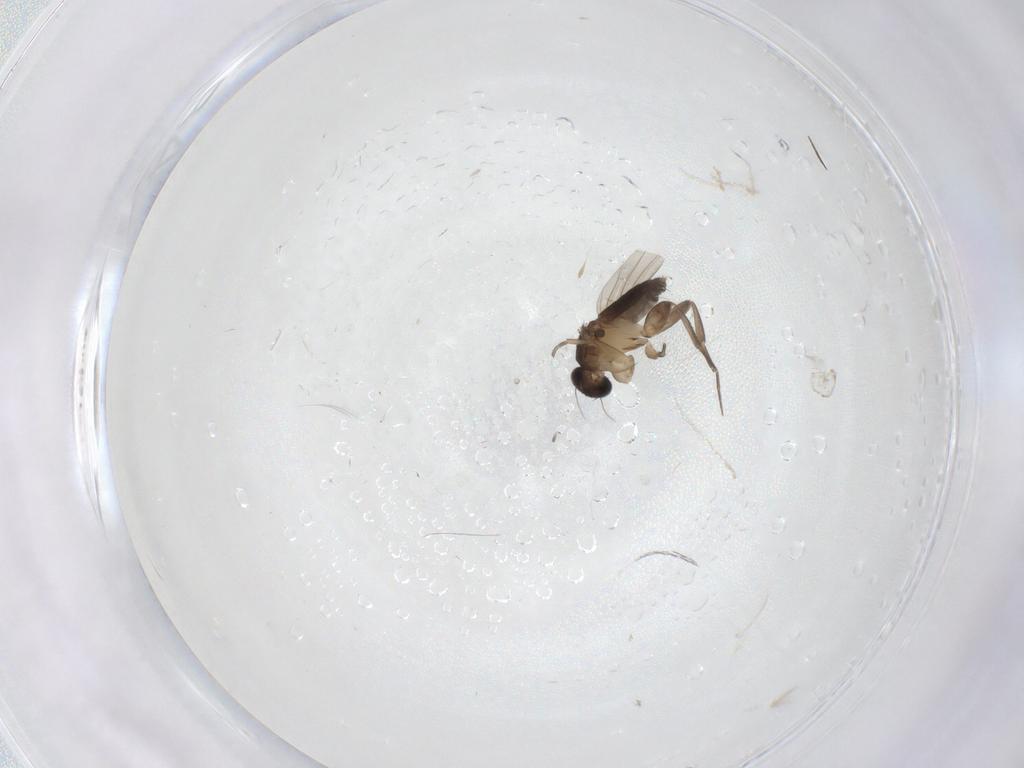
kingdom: Animalia
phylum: Arthropoda
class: Insecta
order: Diptera
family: Phoridae
